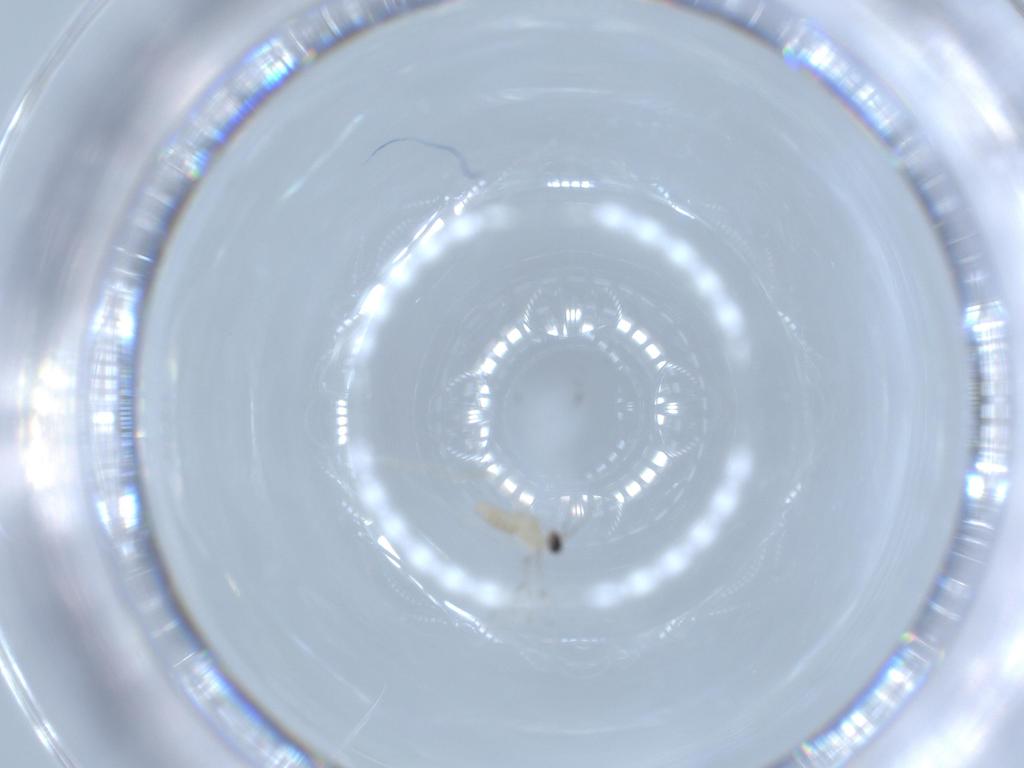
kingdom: Animalia
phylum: Arthropoda
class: Insecta
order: Diptera
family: Cecidomyiidae
